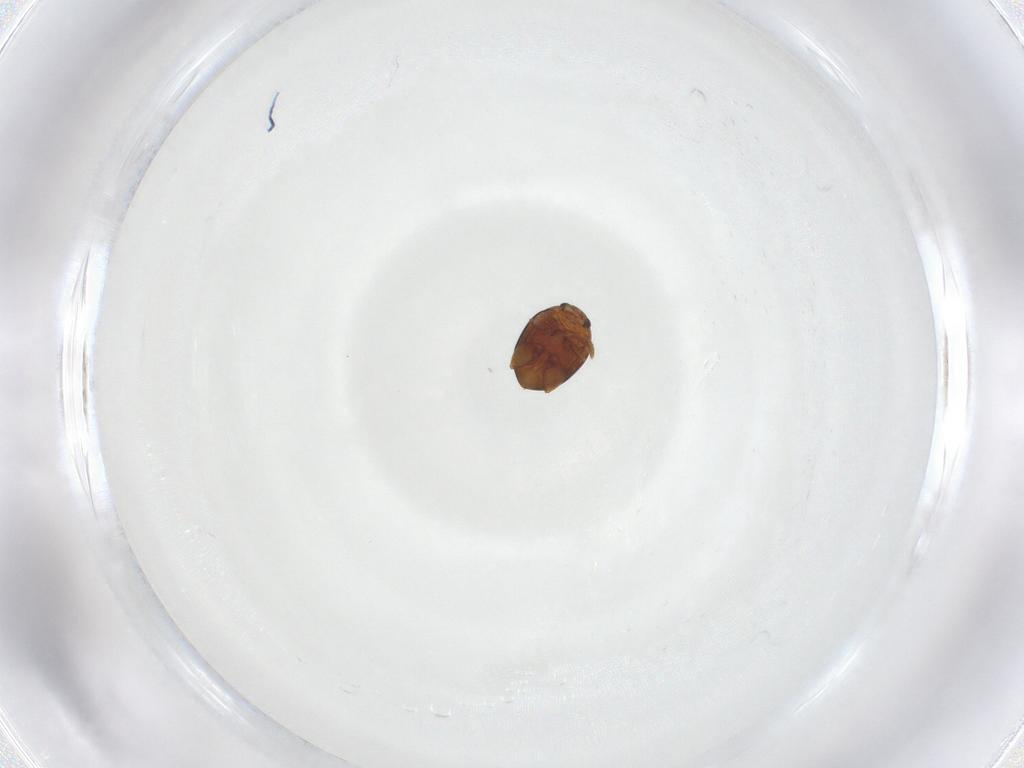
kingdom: Animalia
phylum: Arthropoda
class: Insecta
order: Coleoptera
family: Chrysomelidae
